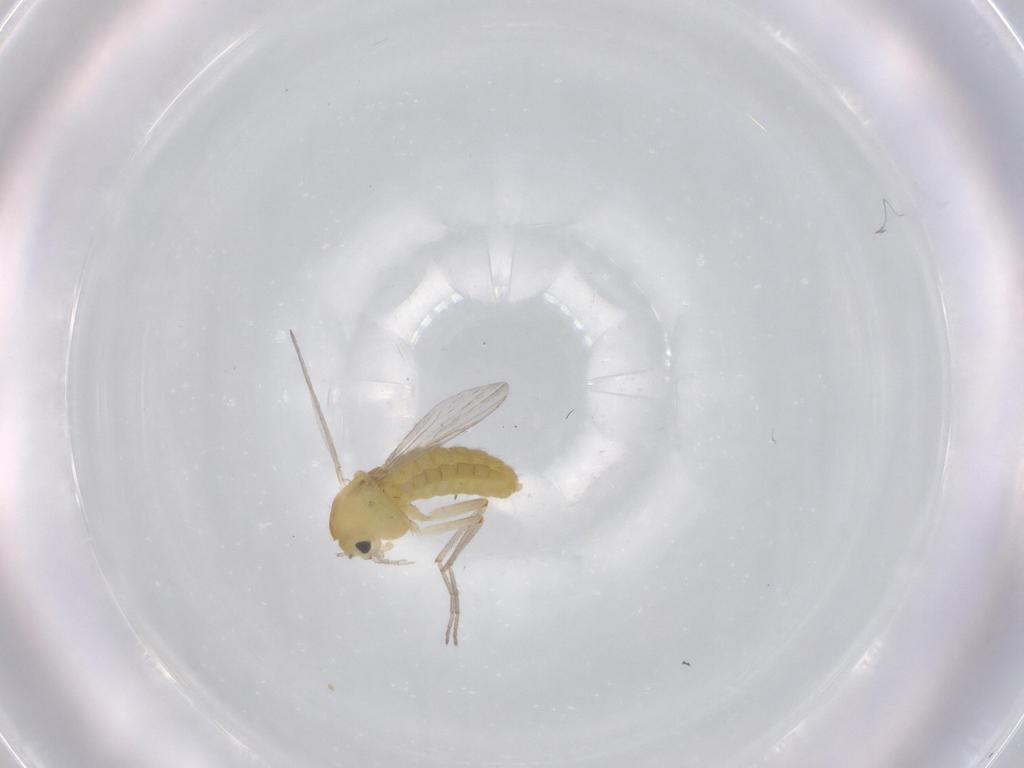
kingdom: Animalia
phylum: Arthropoda
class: Insecta
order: Diptera
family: Chironomidae
